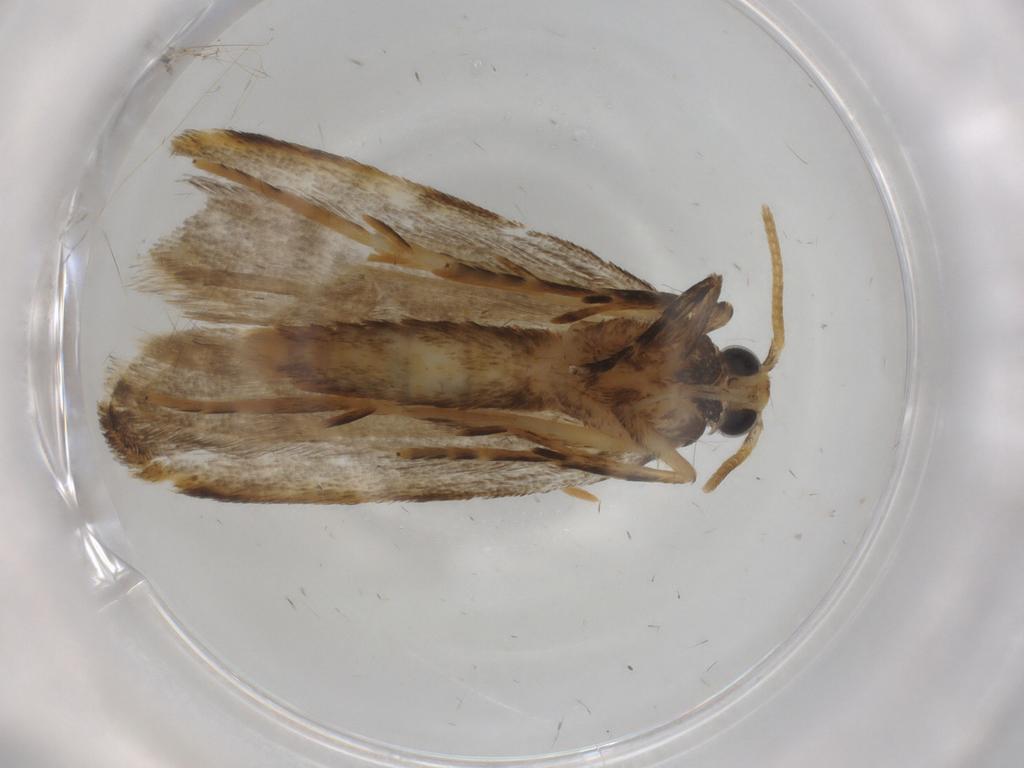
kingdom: Animalia
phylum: Arthropoda
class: Insecta
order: Lepidoptera
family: Autostichidae
